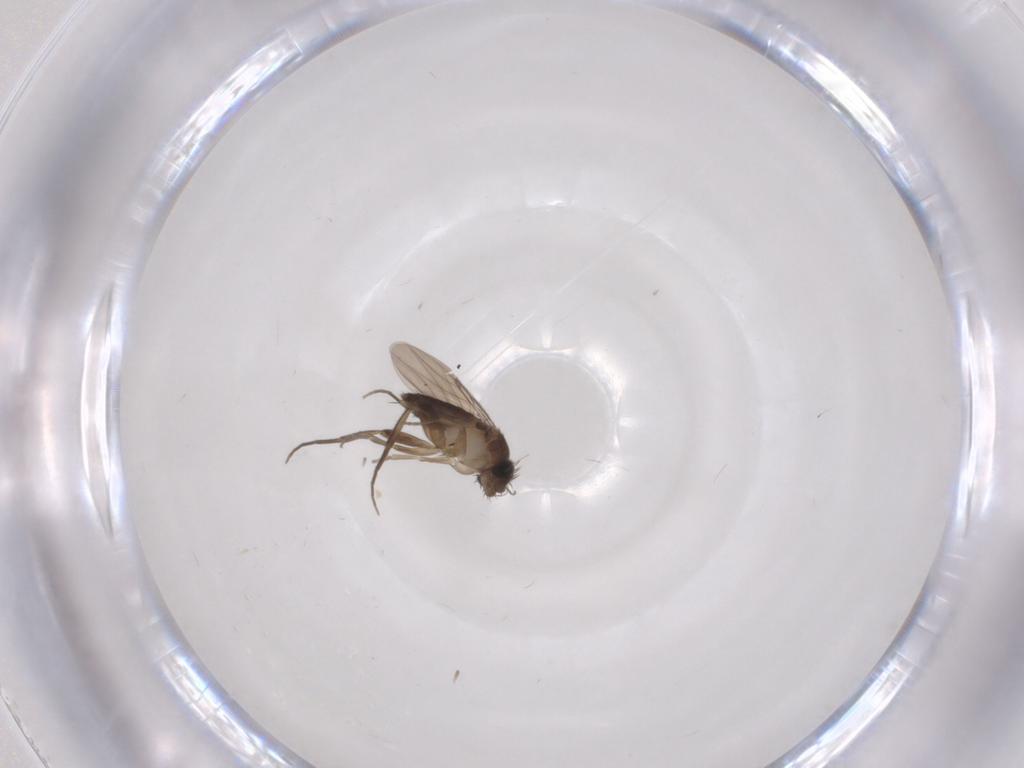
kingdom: Animalia
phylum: Arthropoda
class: Insecta
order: Diptera
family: Phoridae
